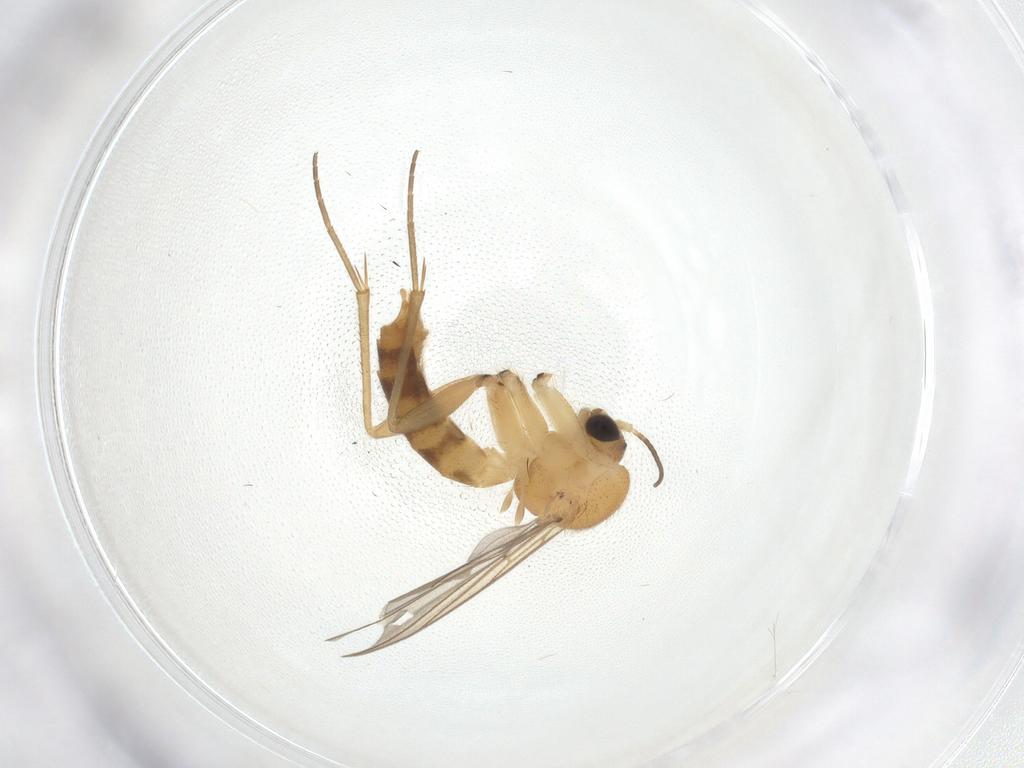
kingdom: Animalia
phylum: Arthropoda
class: Insecta
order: Diptera
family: Mycetophilidae
